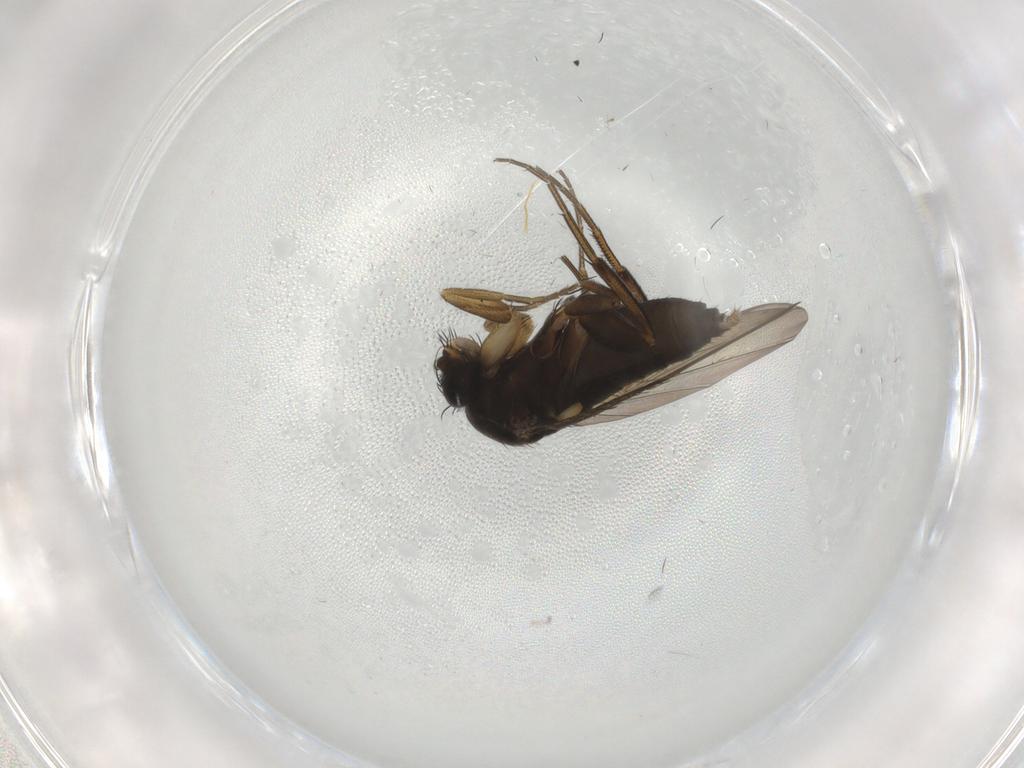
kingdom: Animalia
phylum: Arthropoda
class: Insecta
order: Diptera
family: Phoridae
